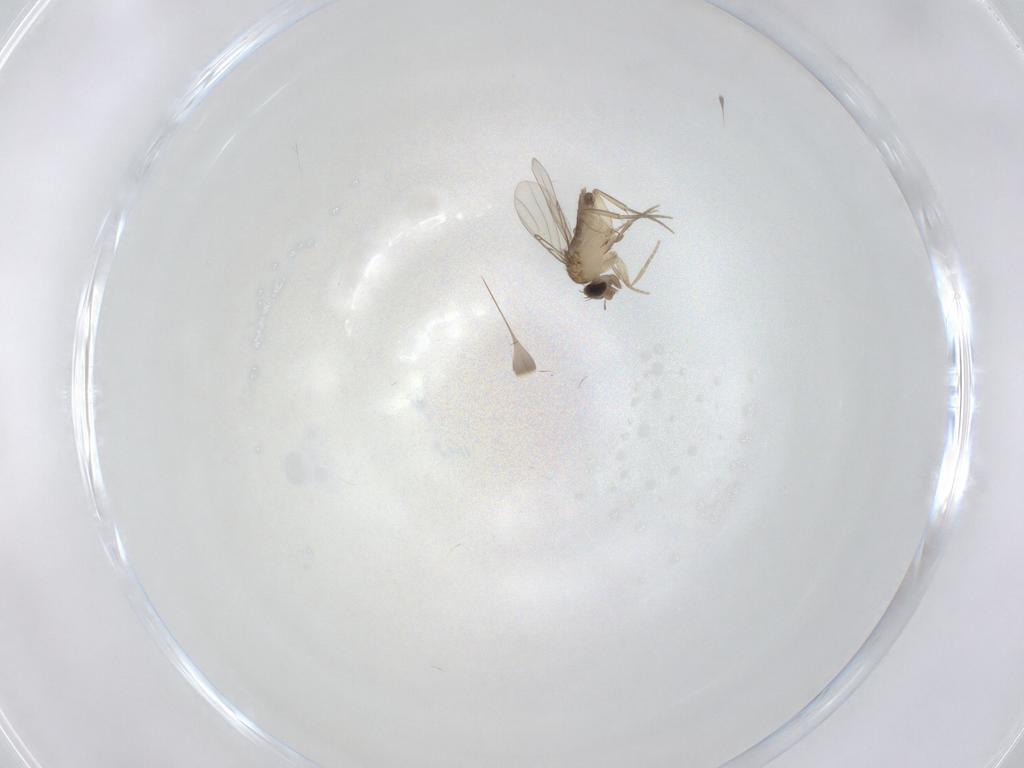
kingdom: Animalia
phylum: Arthropoda
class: Insecta
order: Diptera
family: Phoridae
